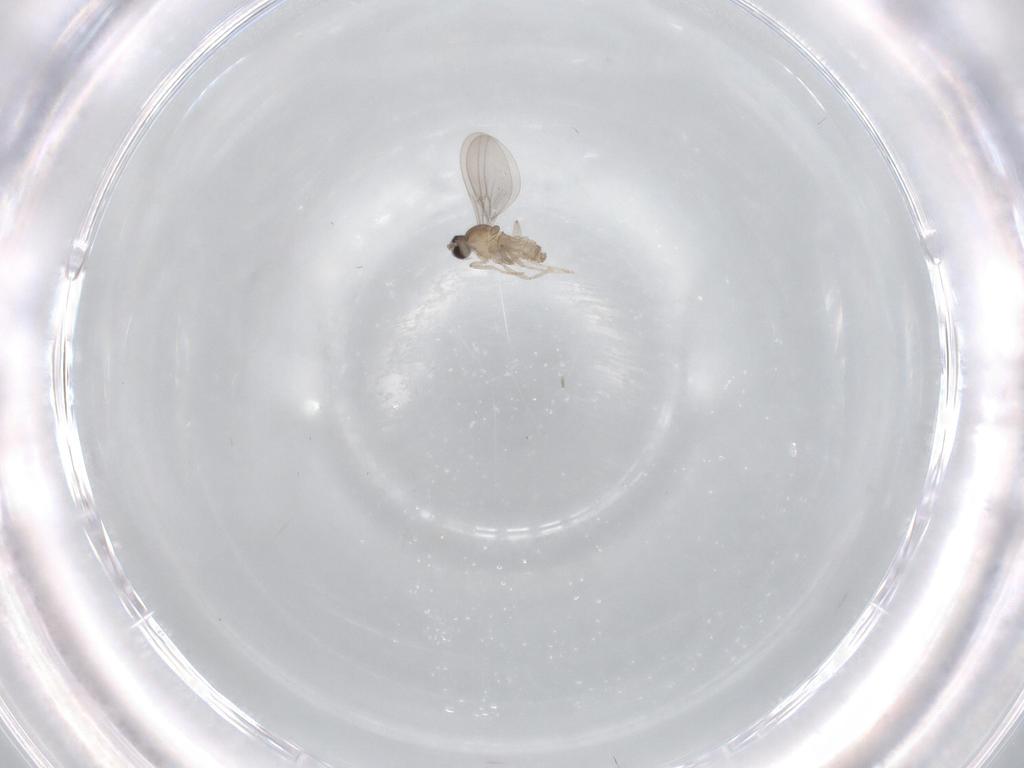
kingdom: Animalia
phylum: Arthropoda
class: Insecta
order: Diptera
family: Cecidomyiidae
